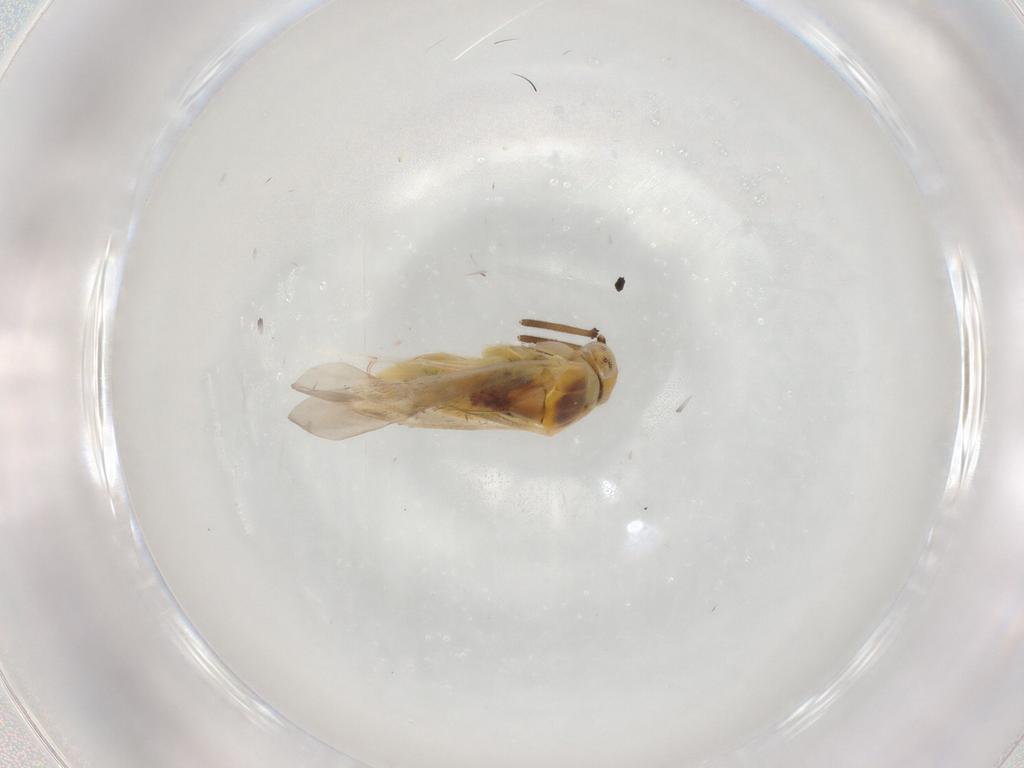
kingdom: Animalia
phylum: Arthropoda
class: Insecta
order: Hemiptera
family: Miridae
